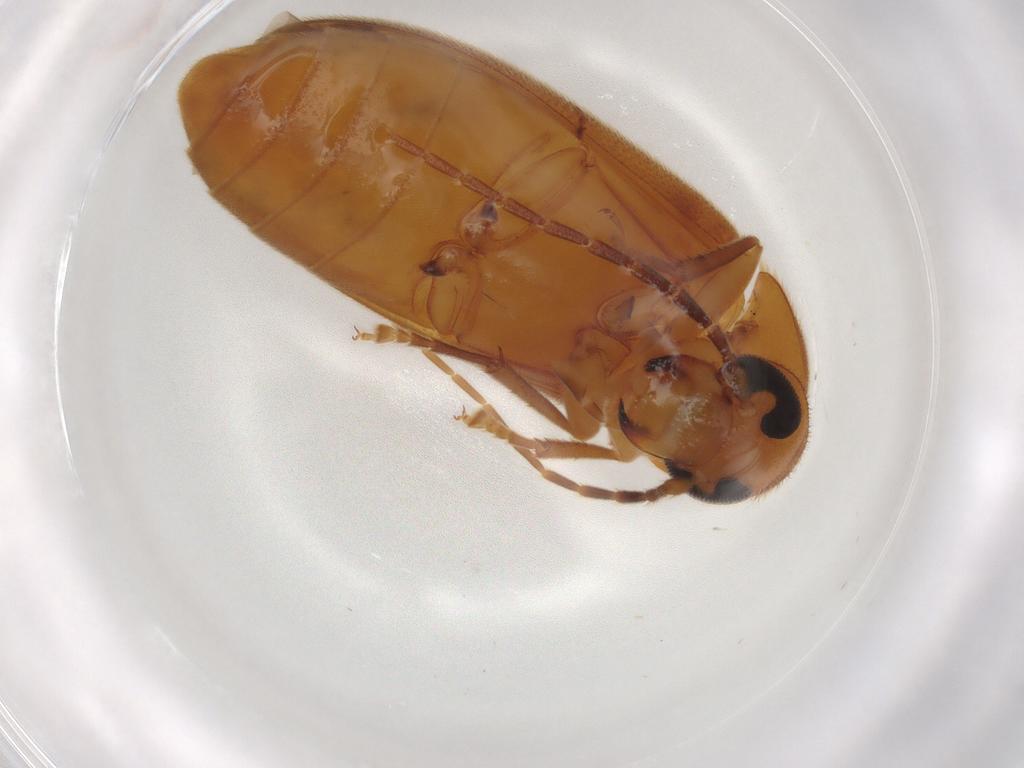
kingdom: Animalia
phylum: Arthropoda
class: Insecta
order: Coleoptera
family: Scraptiidae
